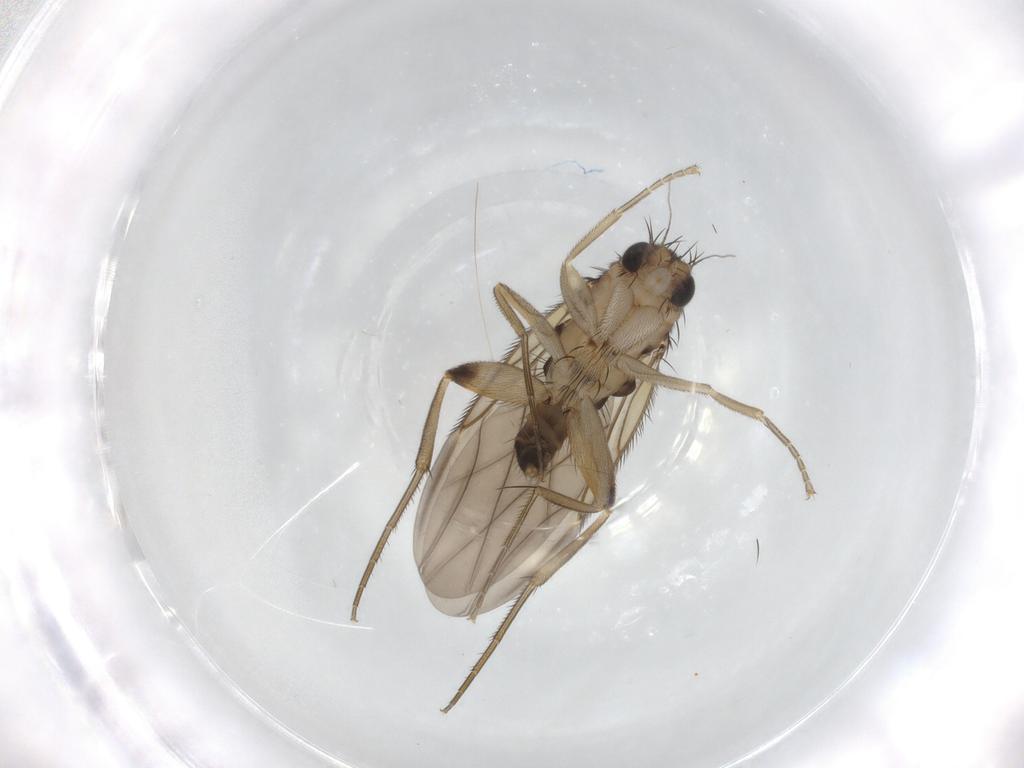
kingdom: Animalia
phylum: Arthropoda
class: Insecta
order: Diptera
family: Phoridae
